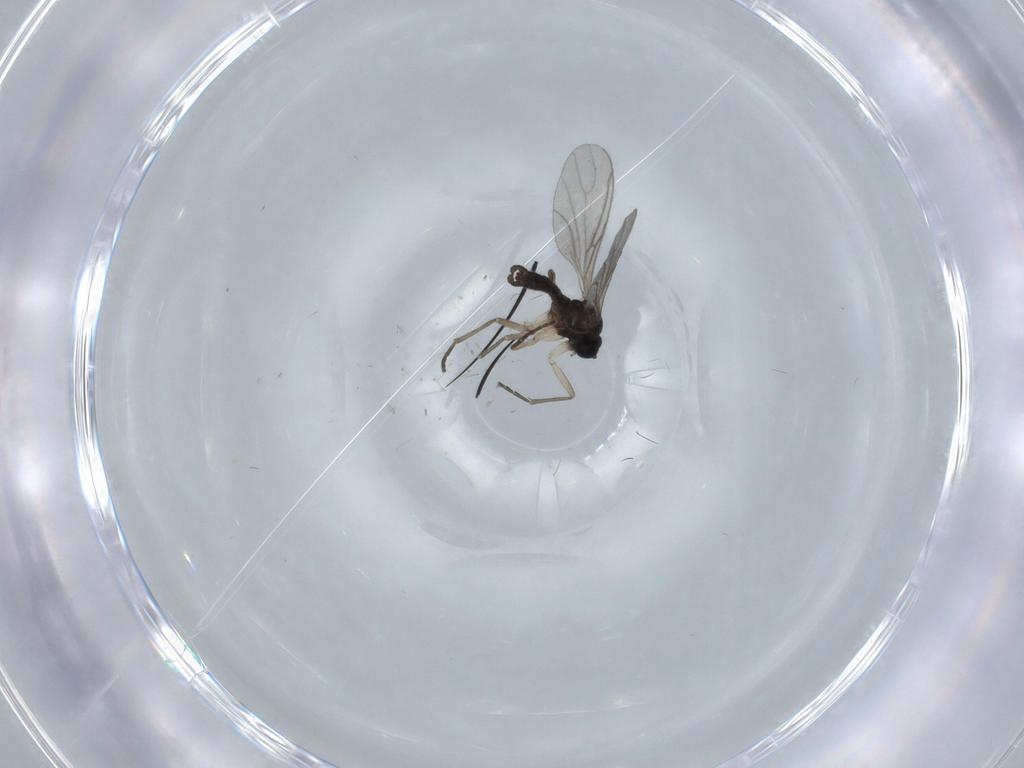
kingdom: Animalia
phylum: Arthropoda
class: Insecta
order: Diptera
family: Sciaridae
